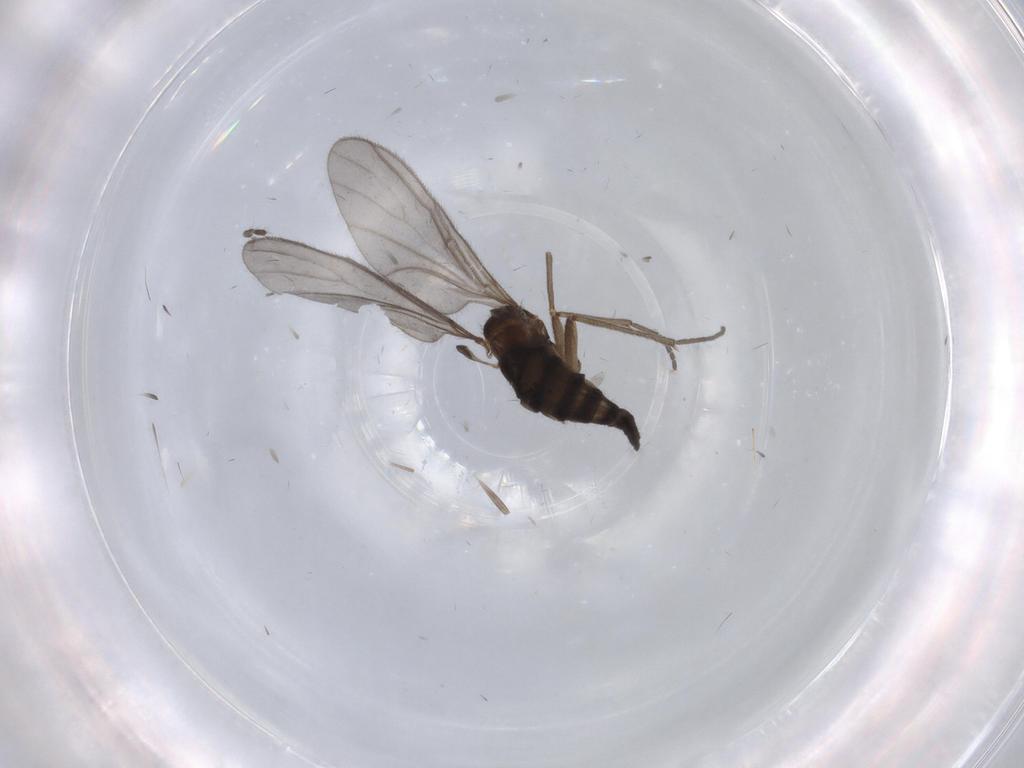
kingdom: Animalia
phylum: Arthropoda
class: Insecta
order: Diptera
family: Sciaridae
